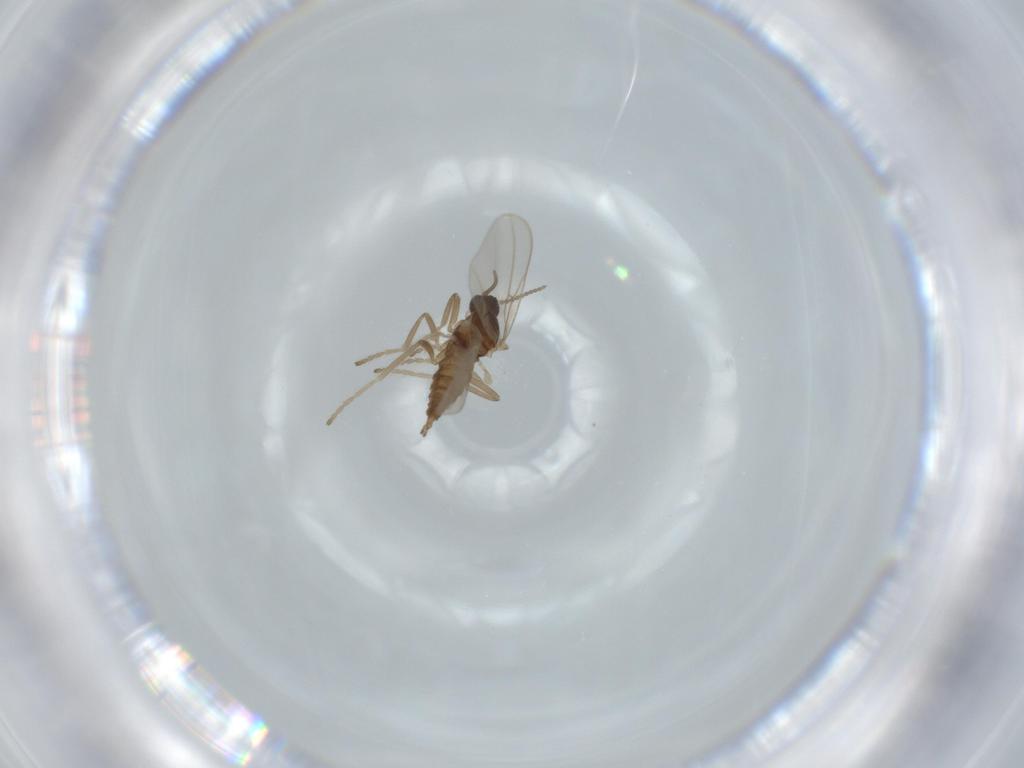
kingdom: Animalia
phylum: Arthropoda
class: Insecta
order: Diptera
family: Cecidomyiidae
